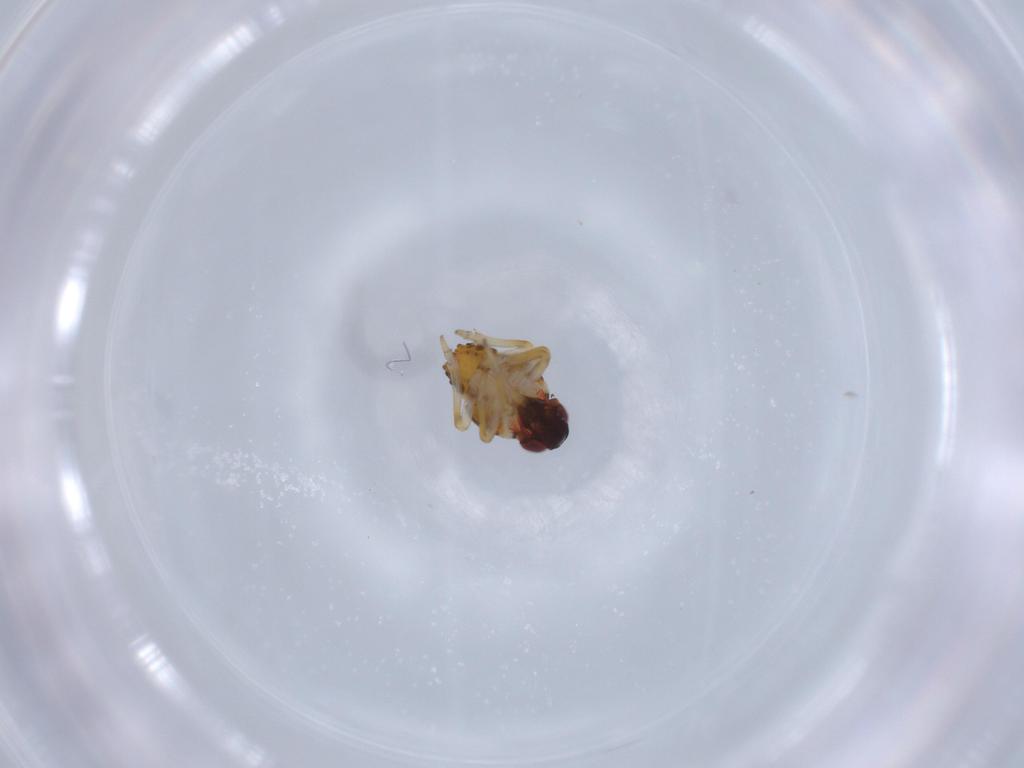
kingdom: Animalia
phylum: Arthropoda
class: Insecta
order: Hemiptera
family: Issidae
